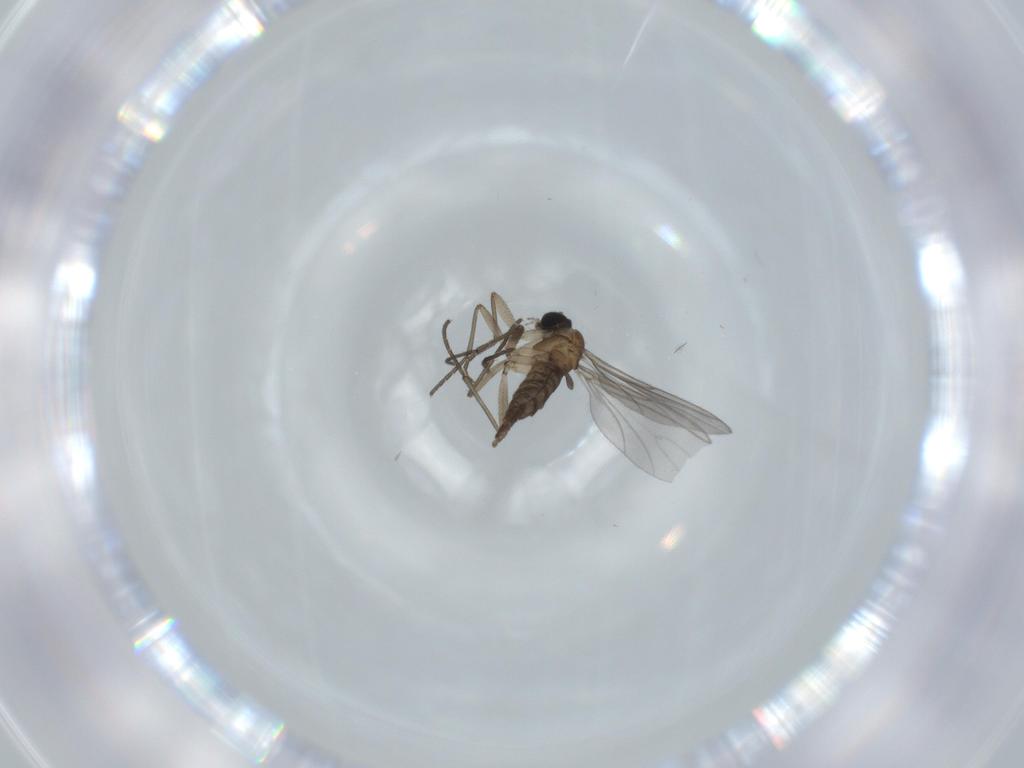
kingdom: Animalia
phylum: Arthropoda
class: Insecta
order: Diptera
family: Sciaridae
